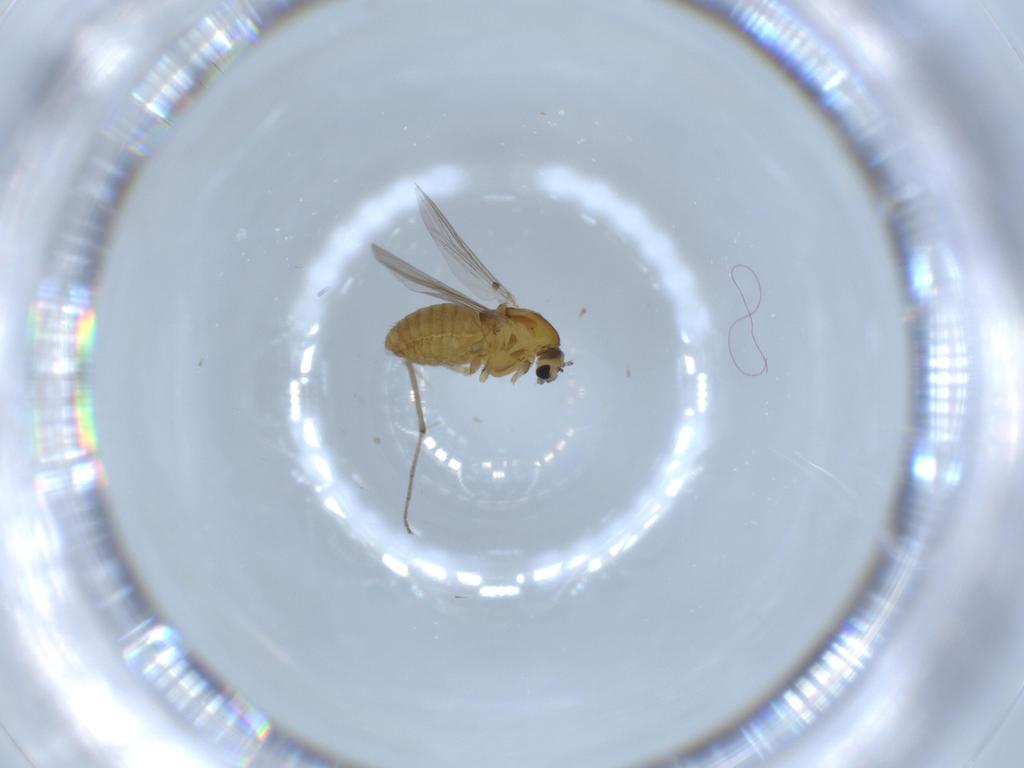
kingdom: Animalia
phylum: Arthropoda
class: Insecta
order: Diptera
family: Chironomidae
